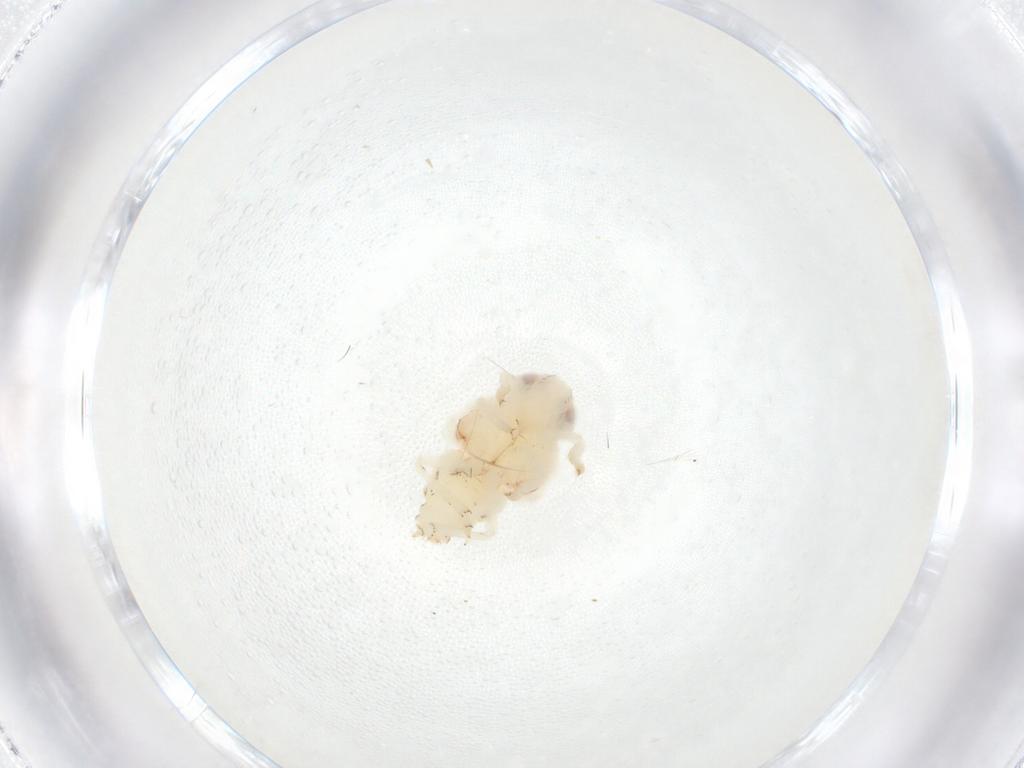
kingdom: Animalia
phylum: Arthropoda
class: Insecta
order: Hemiptera
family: Nogodinidae
